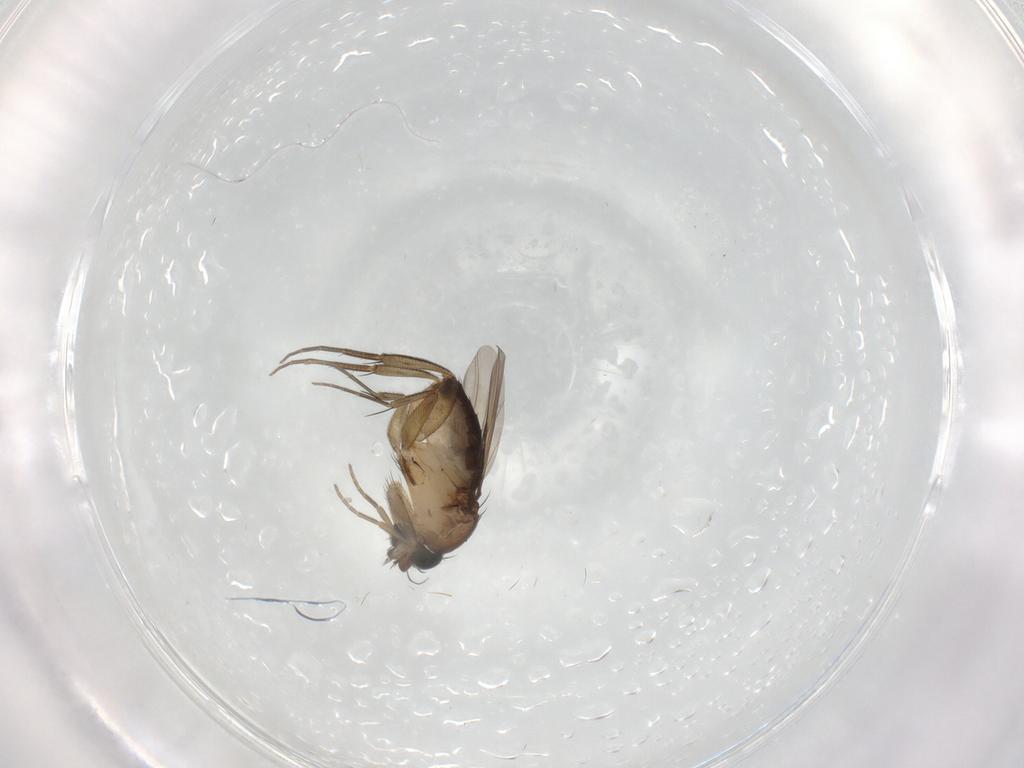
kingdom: Animalia
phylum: Arthropoda
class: Insecta
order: Diptera
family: Phoridae
